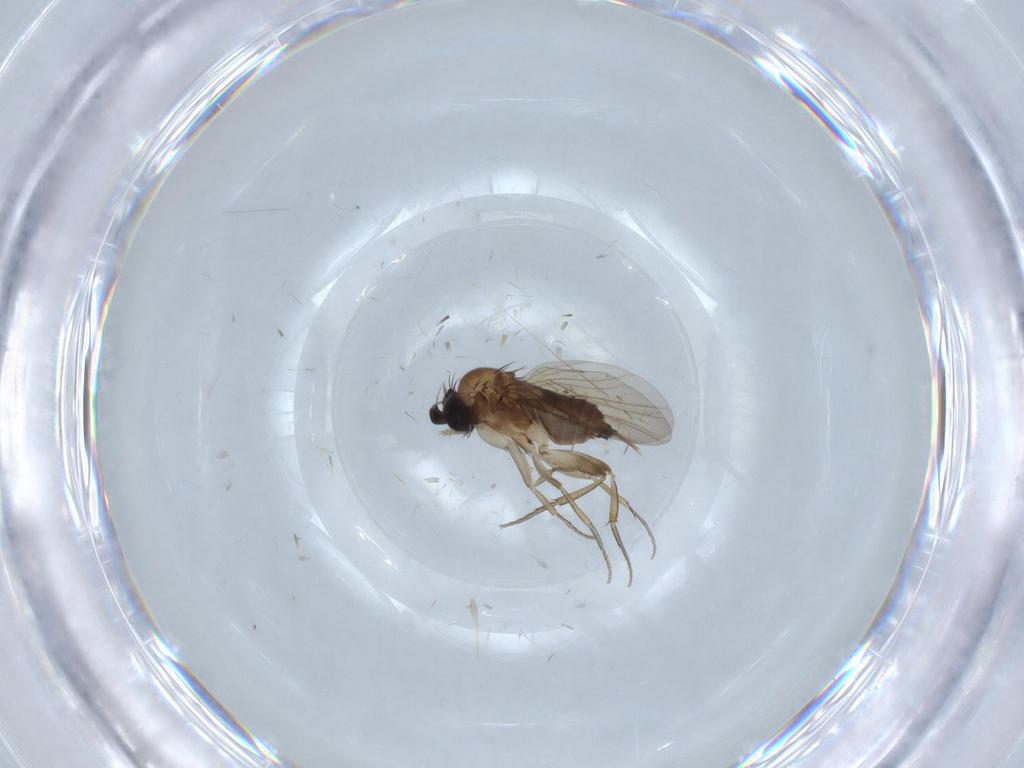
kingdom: Animalia
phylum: Arthropoda
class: Insecta
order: Diptera
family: Phoridae
